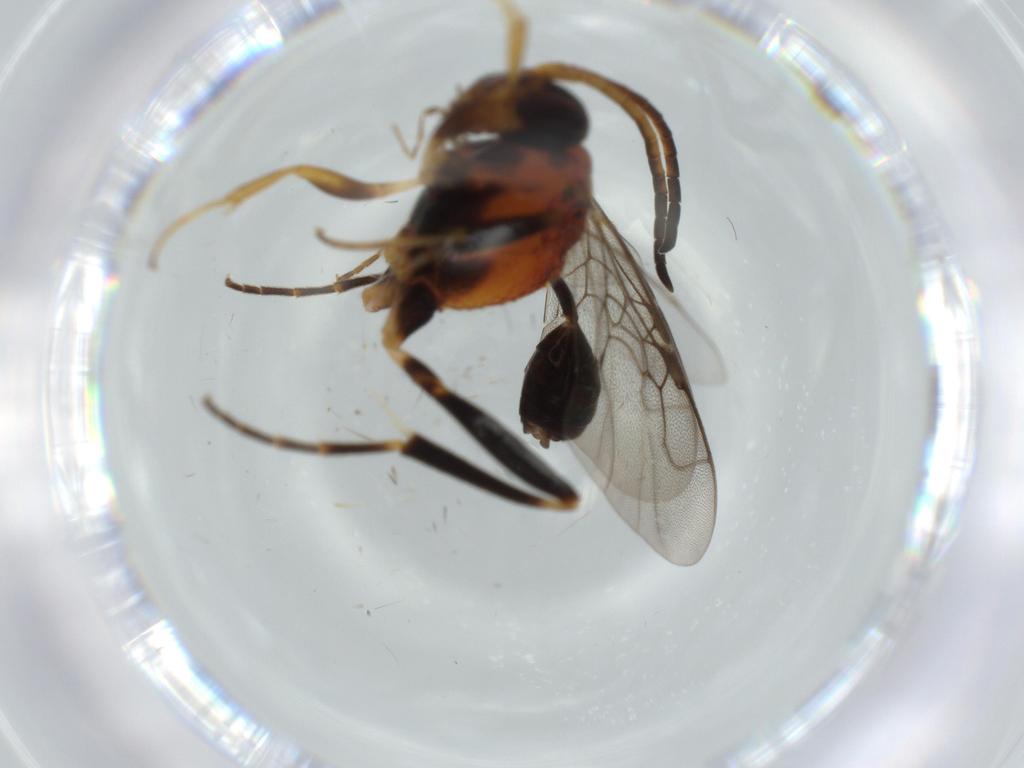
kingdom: Animalia
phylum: Arthropoda
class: Insecta
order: Hymenoptera
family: Evaniidae
